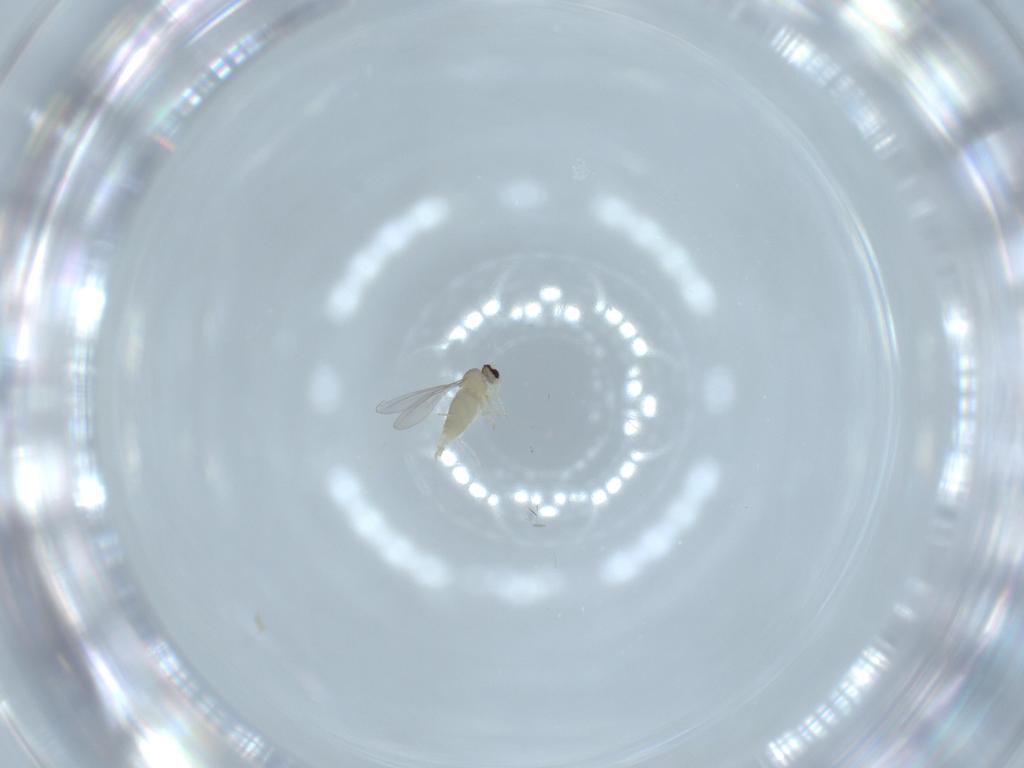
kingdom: Animalia
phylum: Arthropoda
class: Insecta
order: Diptera
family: Cecidomyiidae
